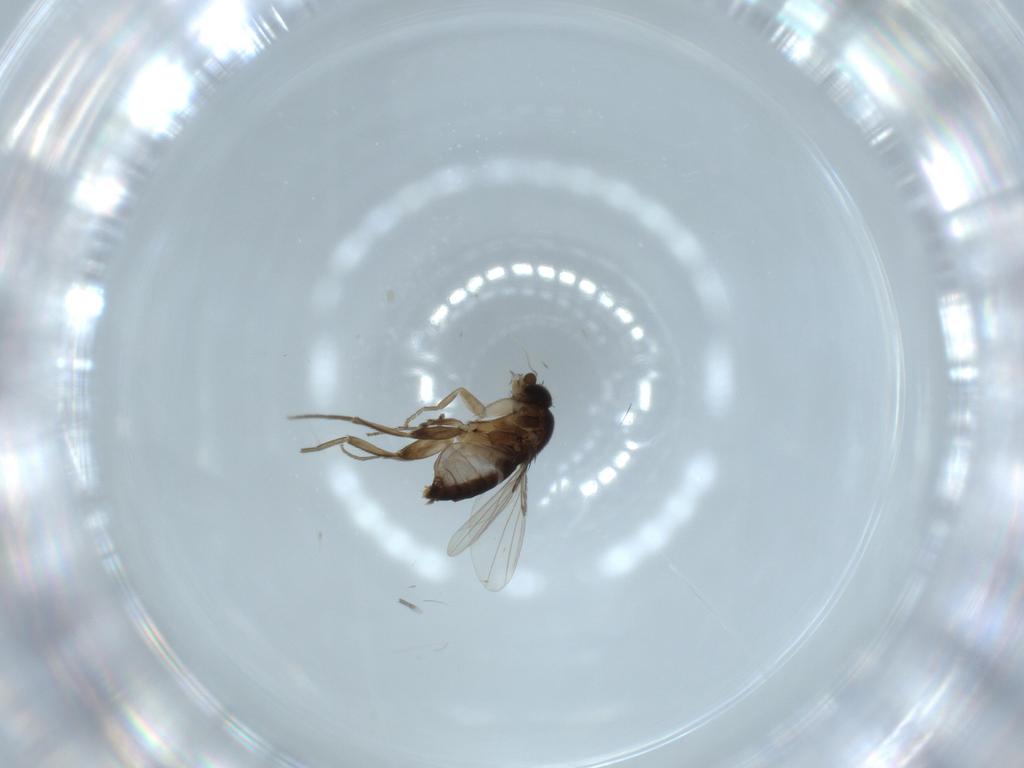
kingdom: Animalia
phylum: Arthropoda
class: Insecta
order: Diptera
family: Phoridae
